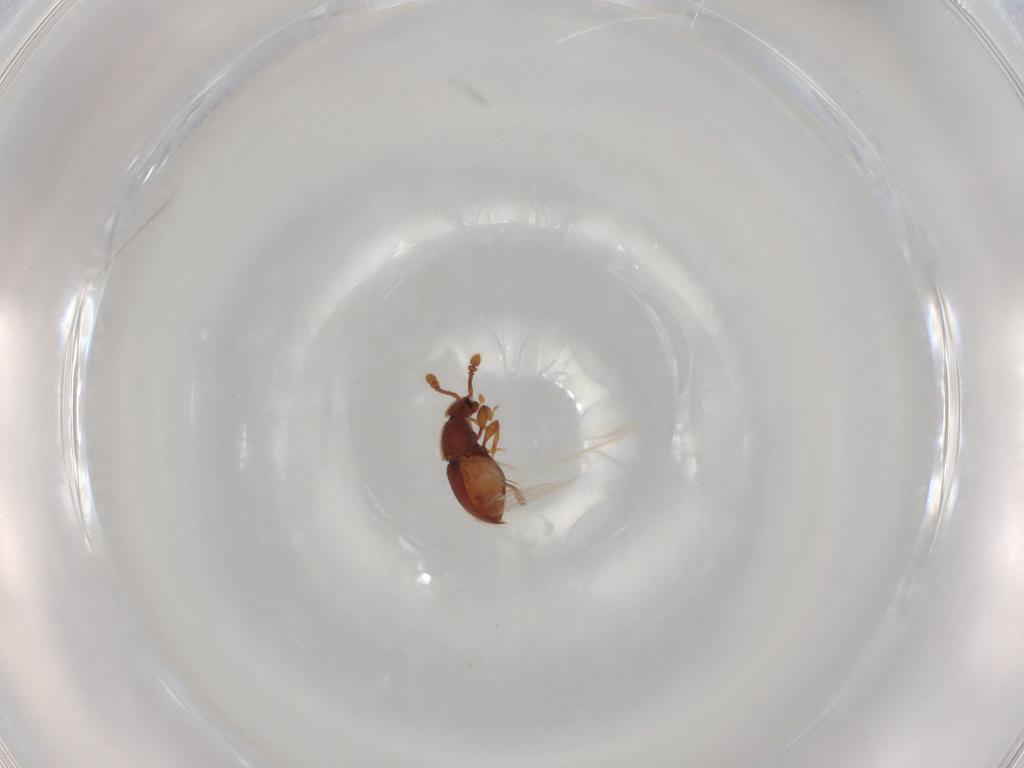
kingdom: Animalia
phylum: Arthropoda
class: Insecta
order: Coleoptera
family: Staphylinidae
